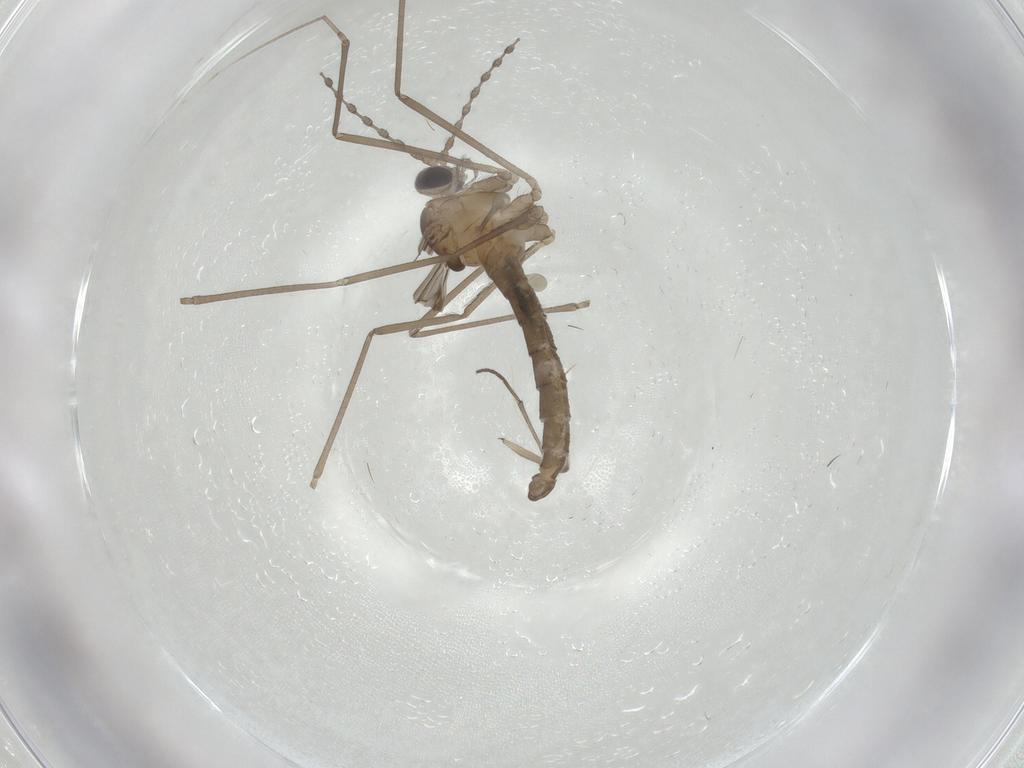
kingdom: Animalia
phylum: Arthropoda
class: Insecta
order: Diptera
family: Cecidomyiidae
